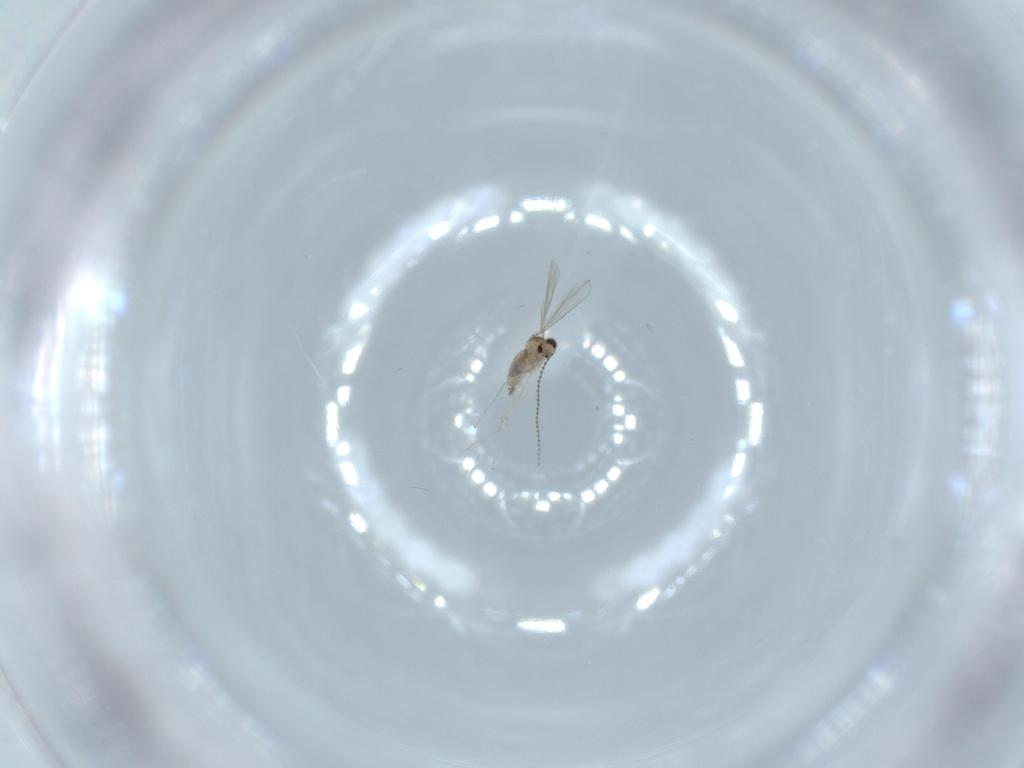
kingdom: Animalia
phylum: Arthropoda
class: Insecta
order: Diptera
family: Cecidomyiidae
